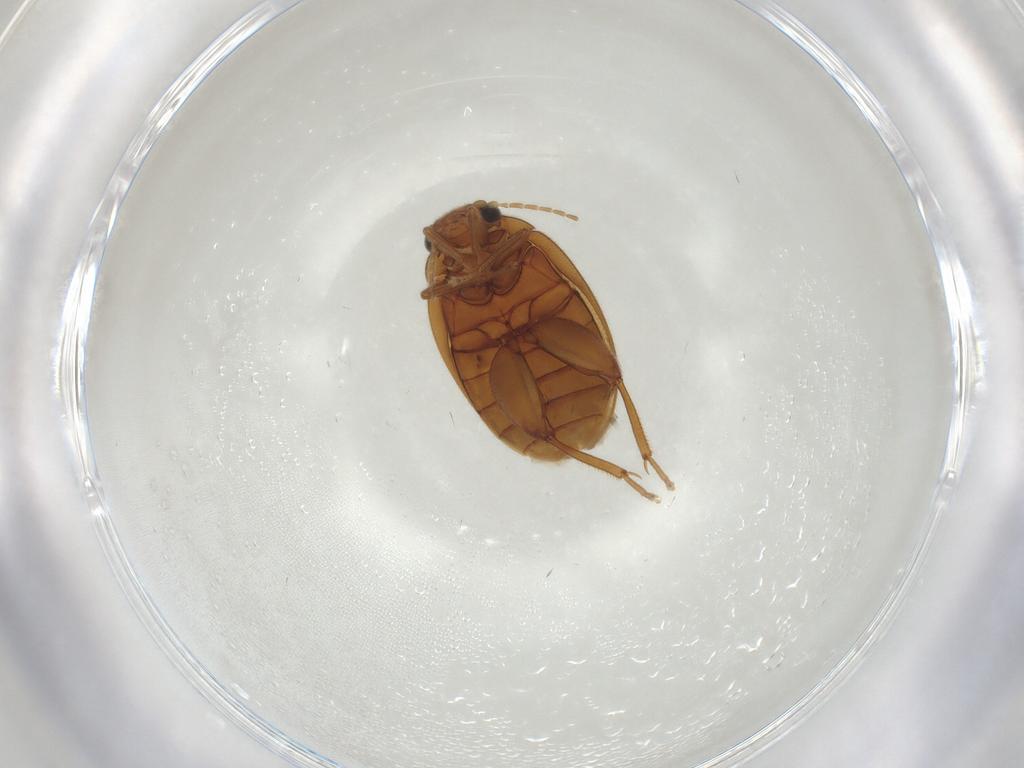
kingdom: Animalia
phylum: Arthropoda
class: Insecta
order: Coleoptera
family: Scirtidae
